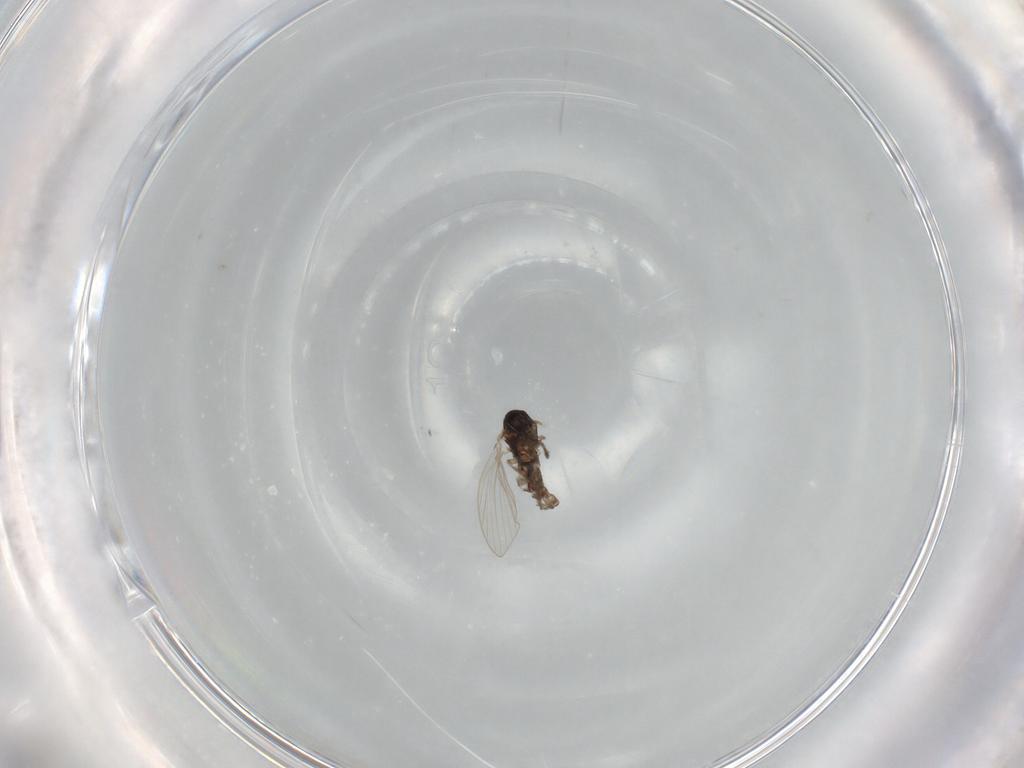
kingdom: Animalia
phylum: Arthropoda
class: Insecta
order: Diptera
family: Psychodidae
